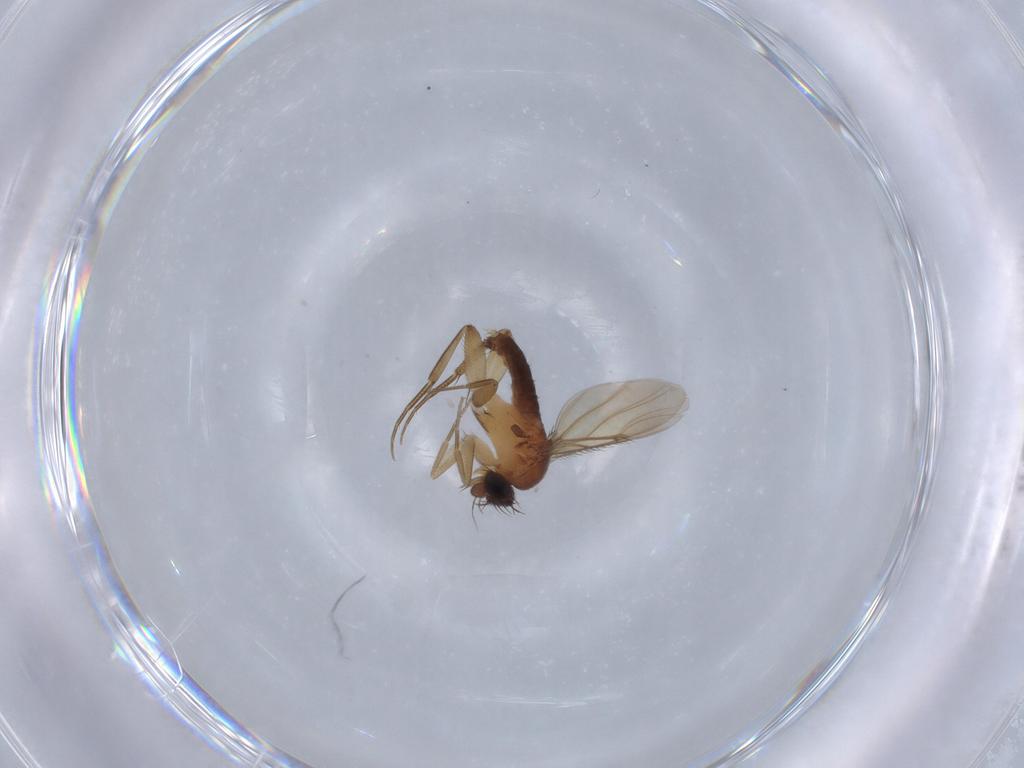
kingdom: Animalia
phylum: Arthropoda
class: Insecta
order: Diptera
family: Phoridae
